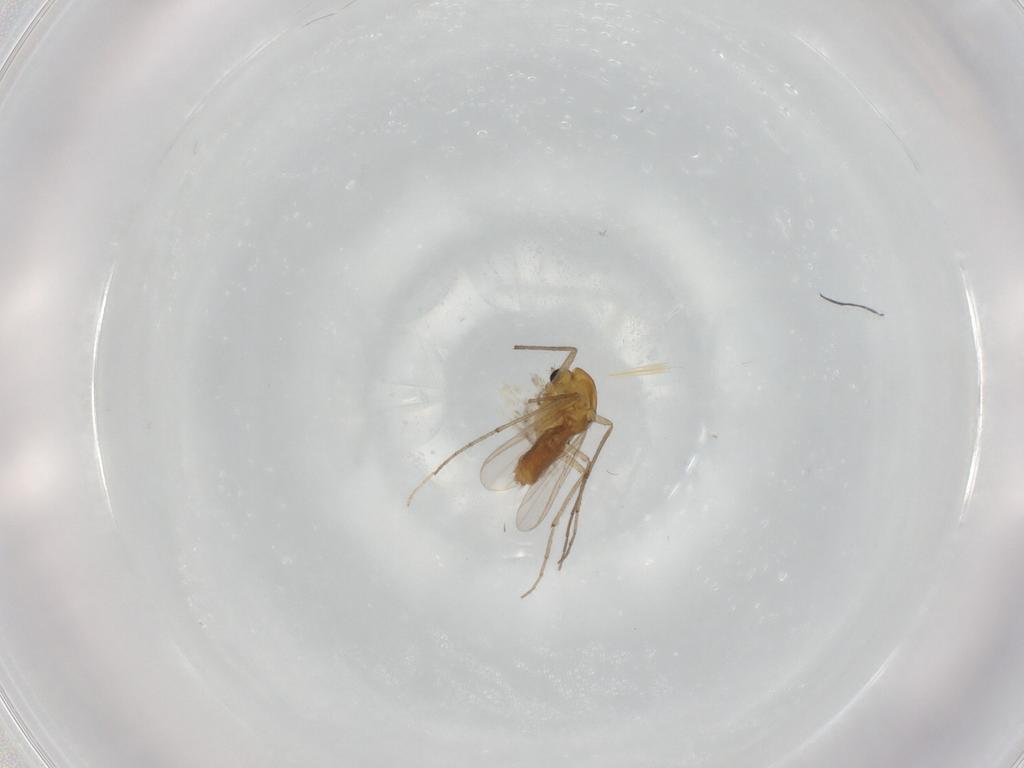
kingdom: Animalia
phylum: Arthropoda
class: Insecta
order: Diptera
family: Chironomidae
